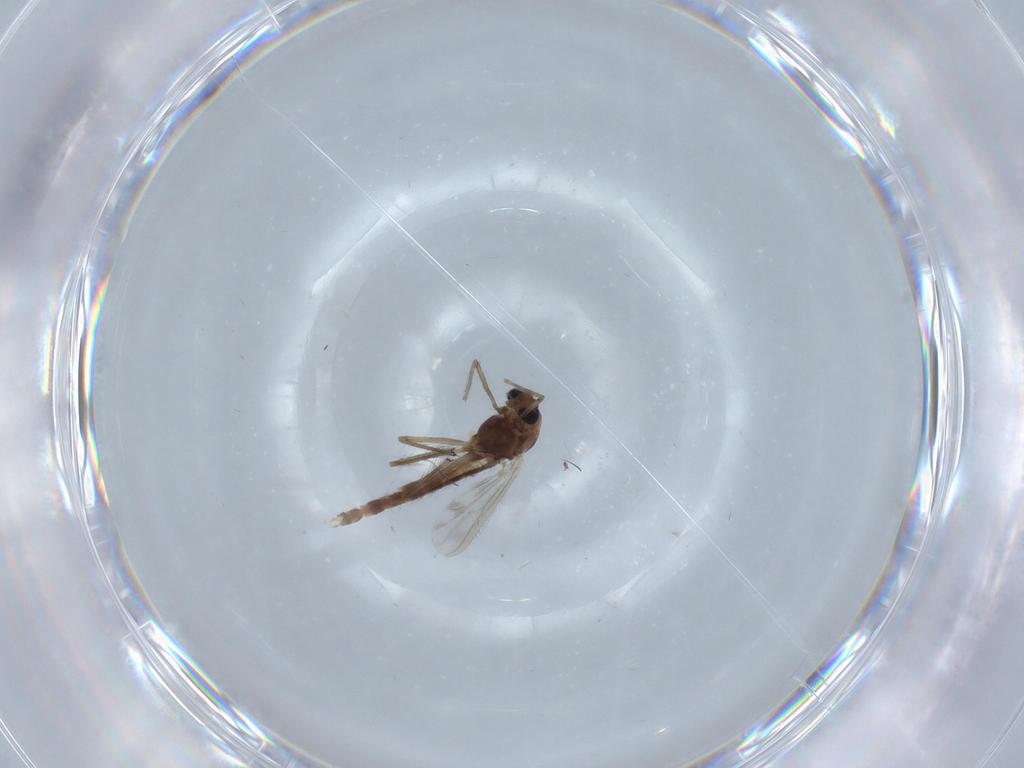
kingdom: Animalia
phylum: Arthropoda
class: Insecta
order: Diptera
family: Chironomidae
